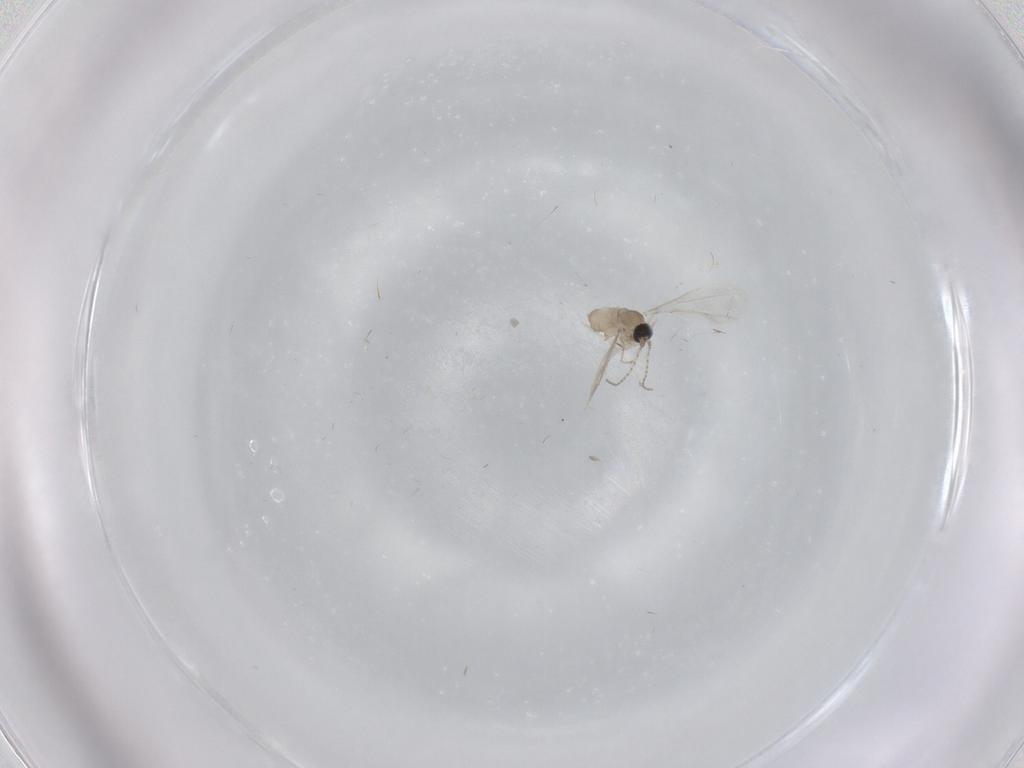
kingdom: Animalia
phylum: Arthropoda
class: Insecta
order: Diptera
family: Cecidomyiidae
